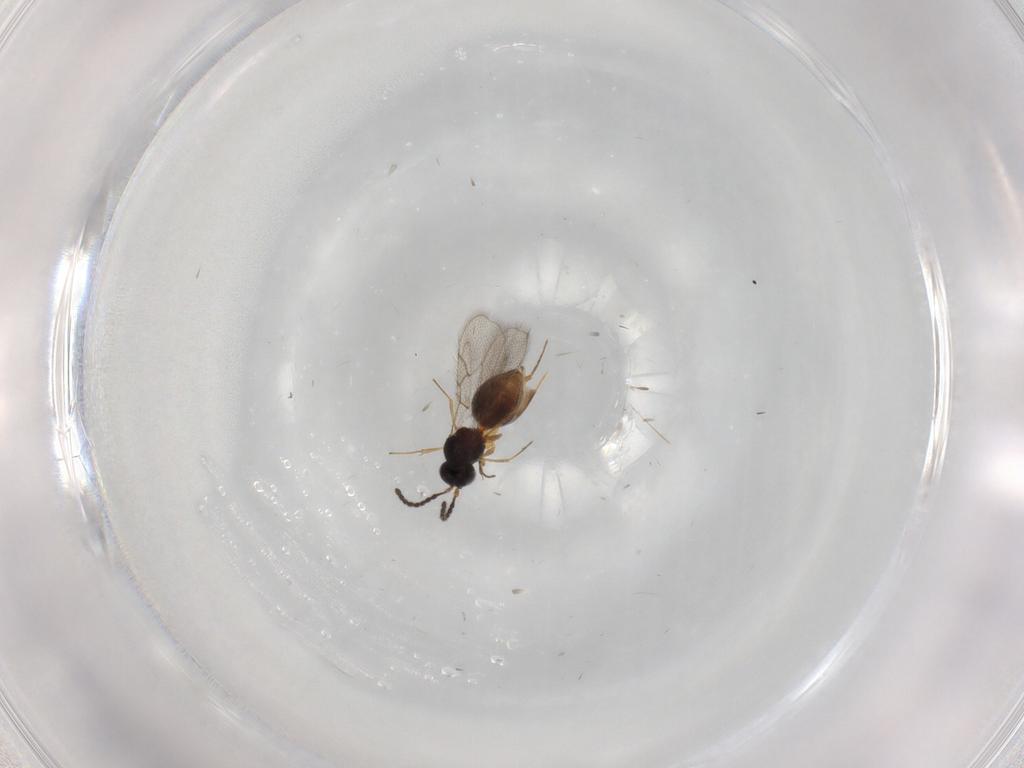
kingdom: Animalia
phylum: Arthropoda
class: Insecta
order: Hymenoptera
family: Figitidae
